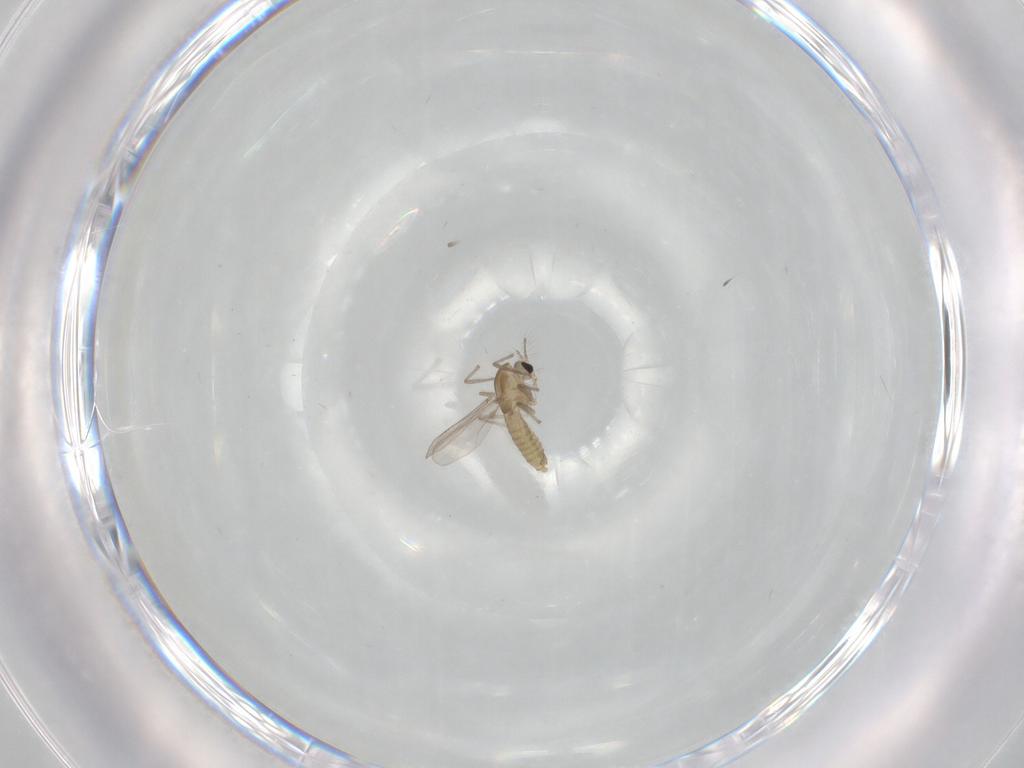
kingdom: Animalia
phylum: Arthropoda
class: Insecta
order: Diptera
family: Chironomidae
